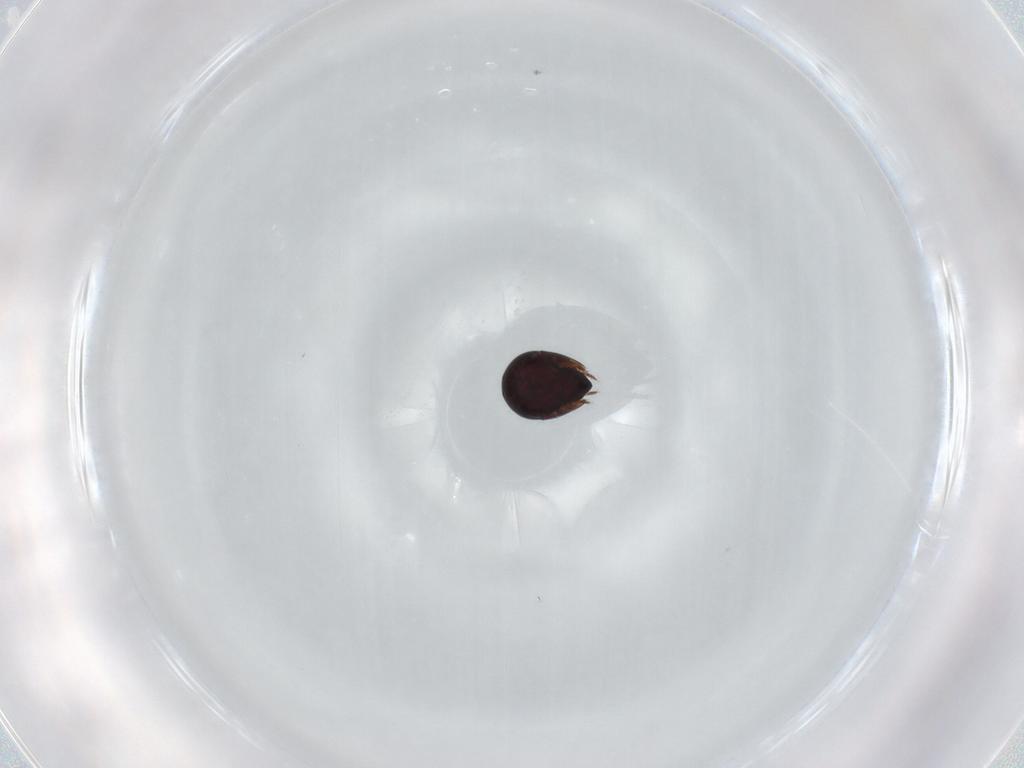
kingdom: Animalia
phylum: Arthropoda
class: Arachnida
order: Sarcoptiformes
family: Ceratozetidae
